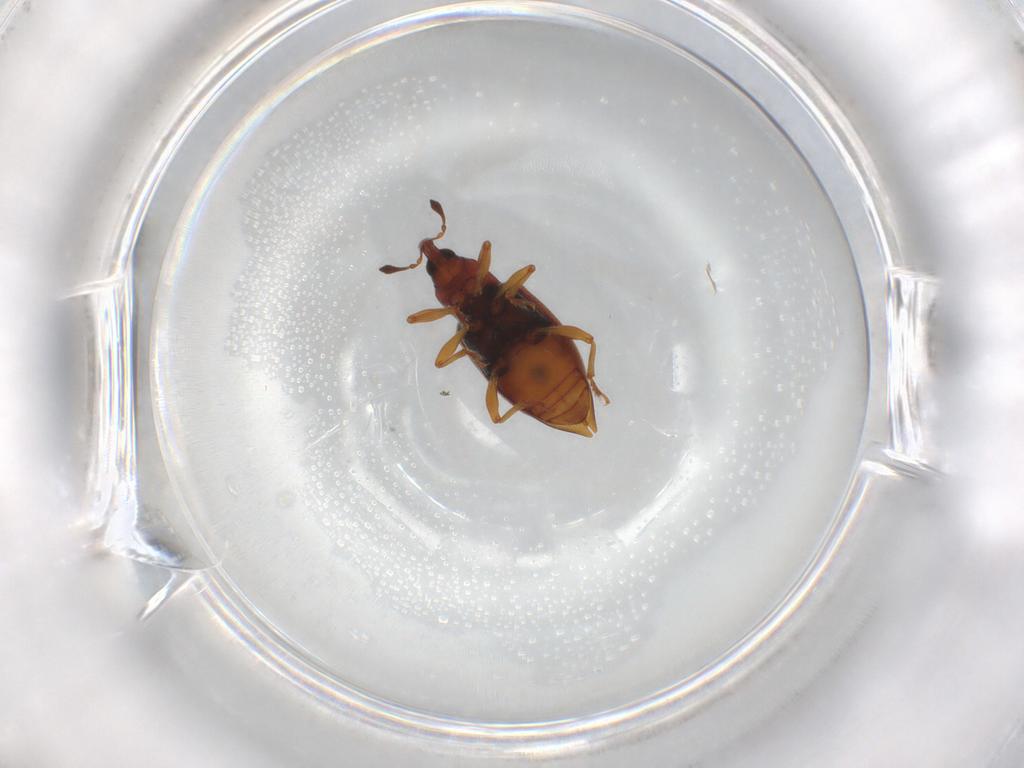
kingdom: Animalia
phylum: Arthropoda
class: Insecta
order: Coleoptera
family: Curculionidae
